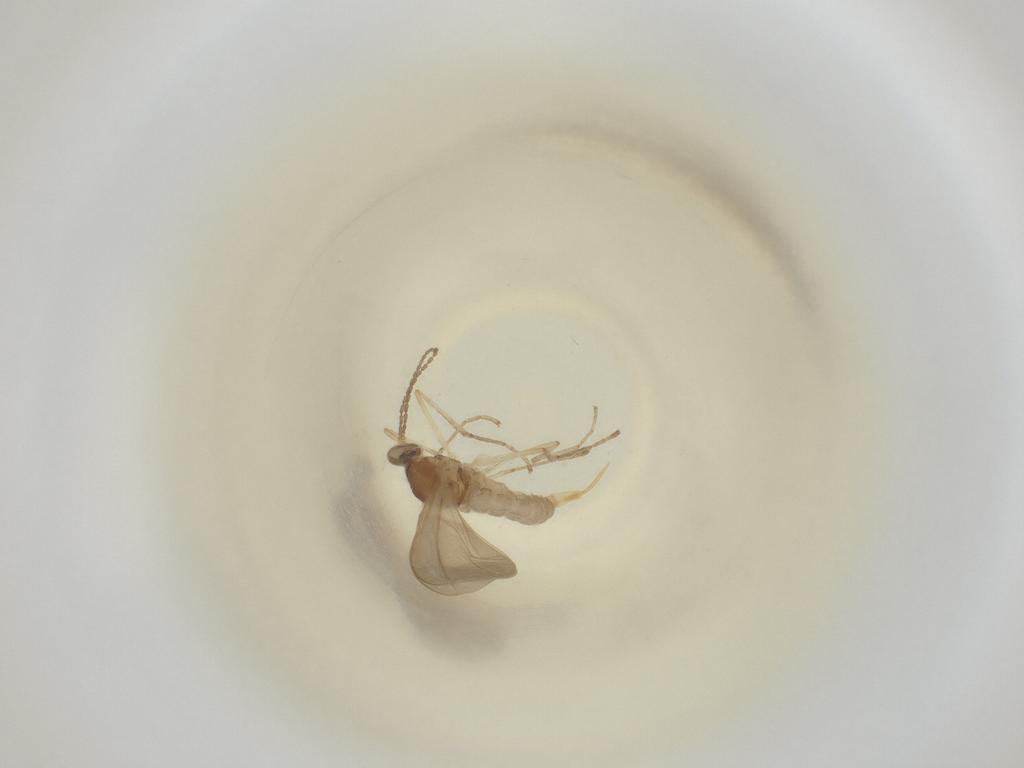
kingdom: Animalia
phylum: Arthropoda
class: Insecta
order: Diptera
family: Cecidomyiidae
